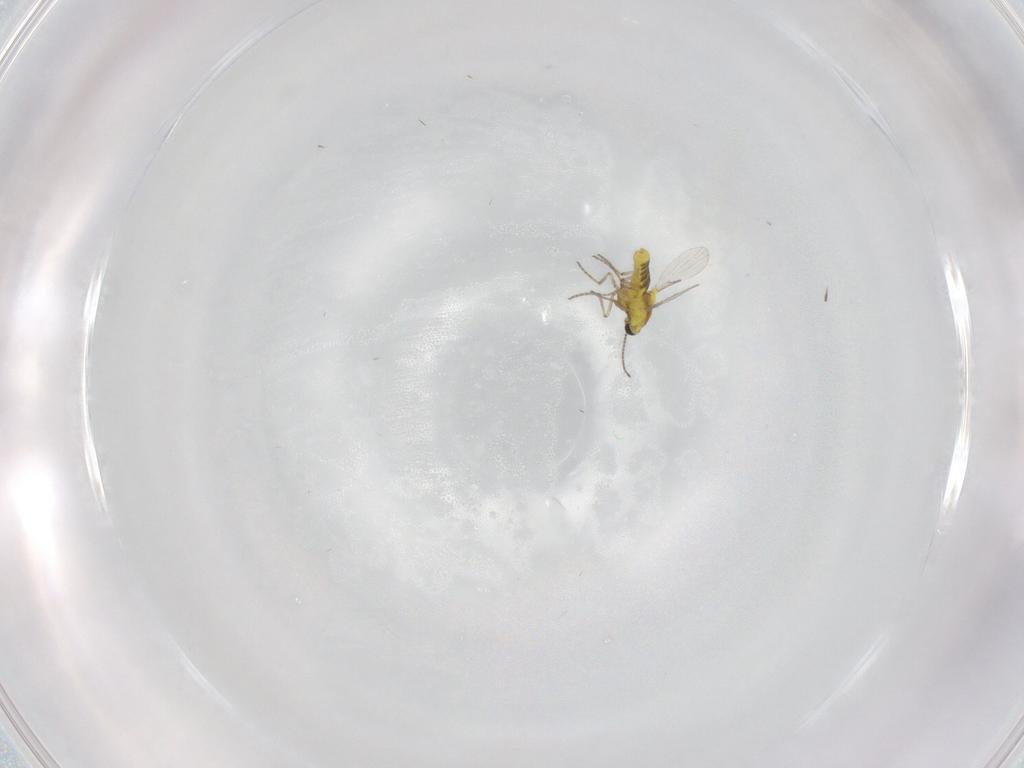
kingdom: Animalia
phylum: Arthropoda
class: Insecta
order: Diptera
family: Ceratopogonidae
